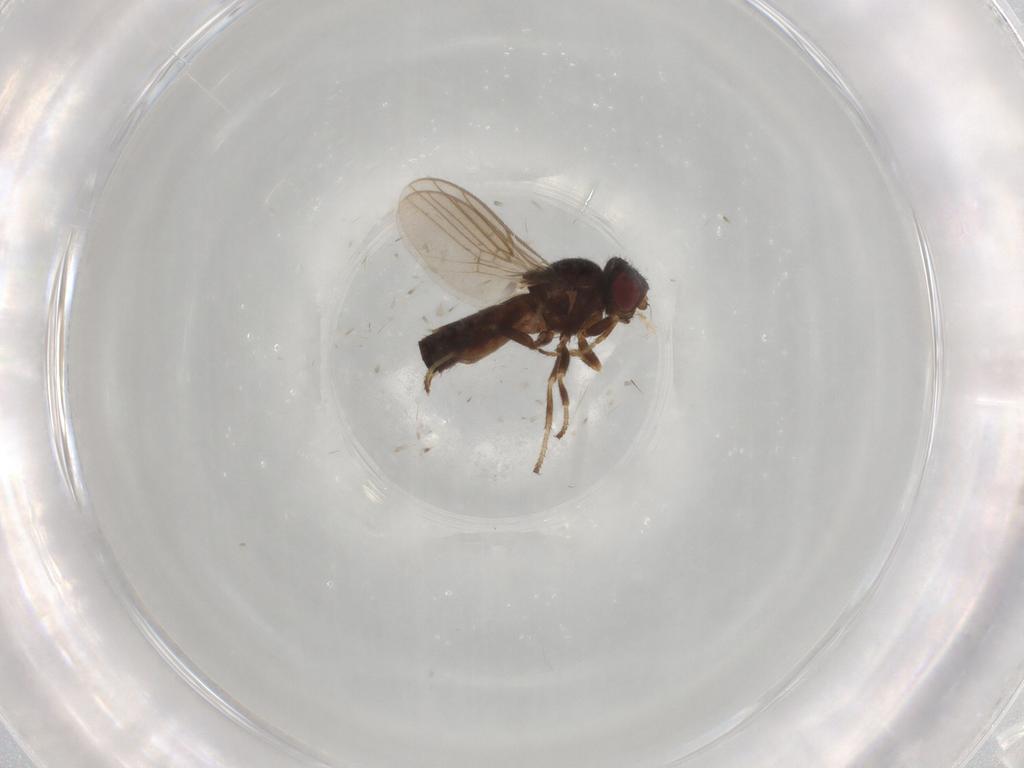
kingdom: Animalia
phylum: Arthropoda
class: Insecta
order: Diptera
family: Chloropidae
